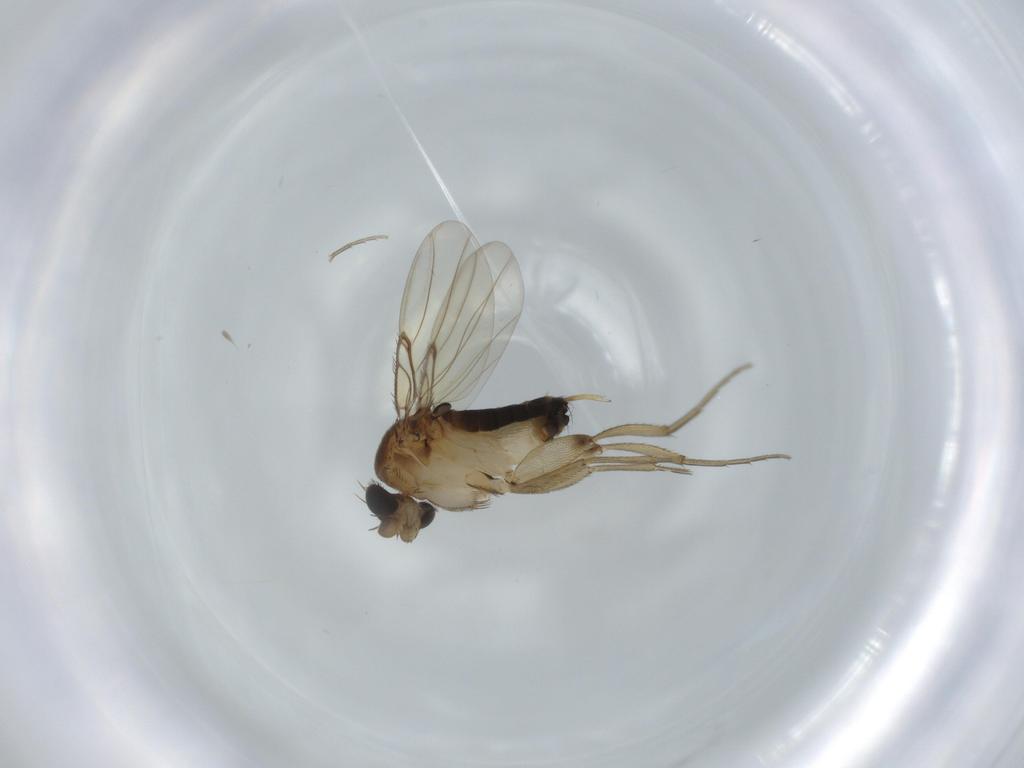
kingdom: Animalia
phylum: Arthropoda
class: Insecta
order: Diptera
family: Phoridae
